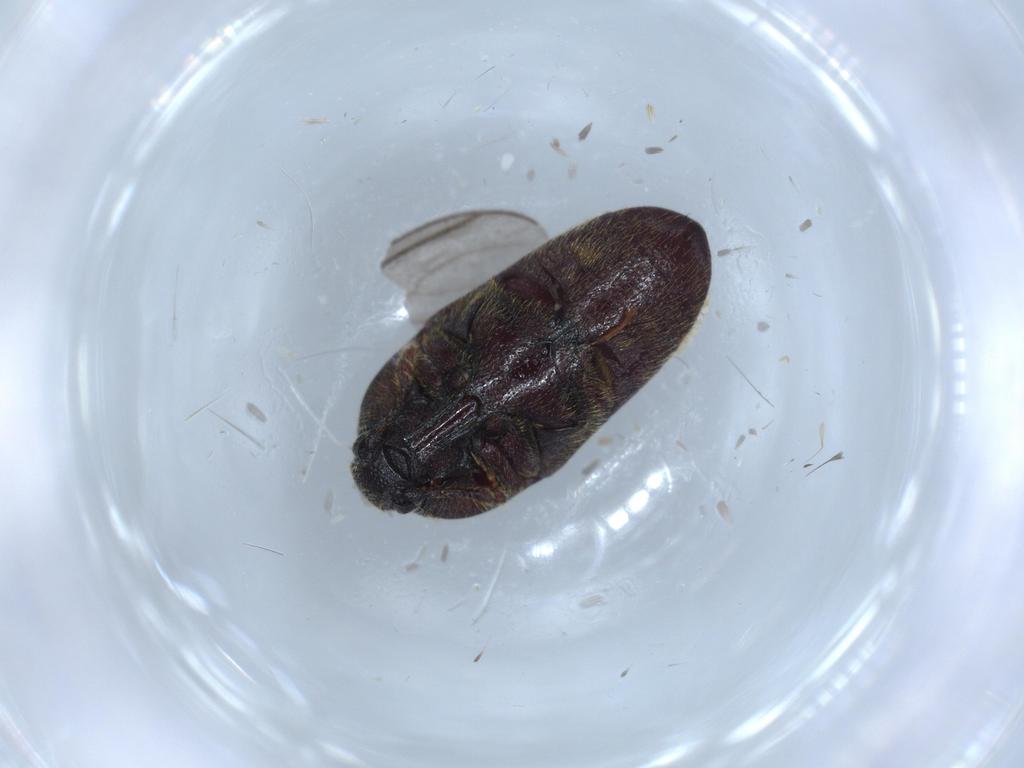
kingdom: Animalia
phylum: Arthropoda
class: Insecta
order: Coleoptera
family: Throscidae
